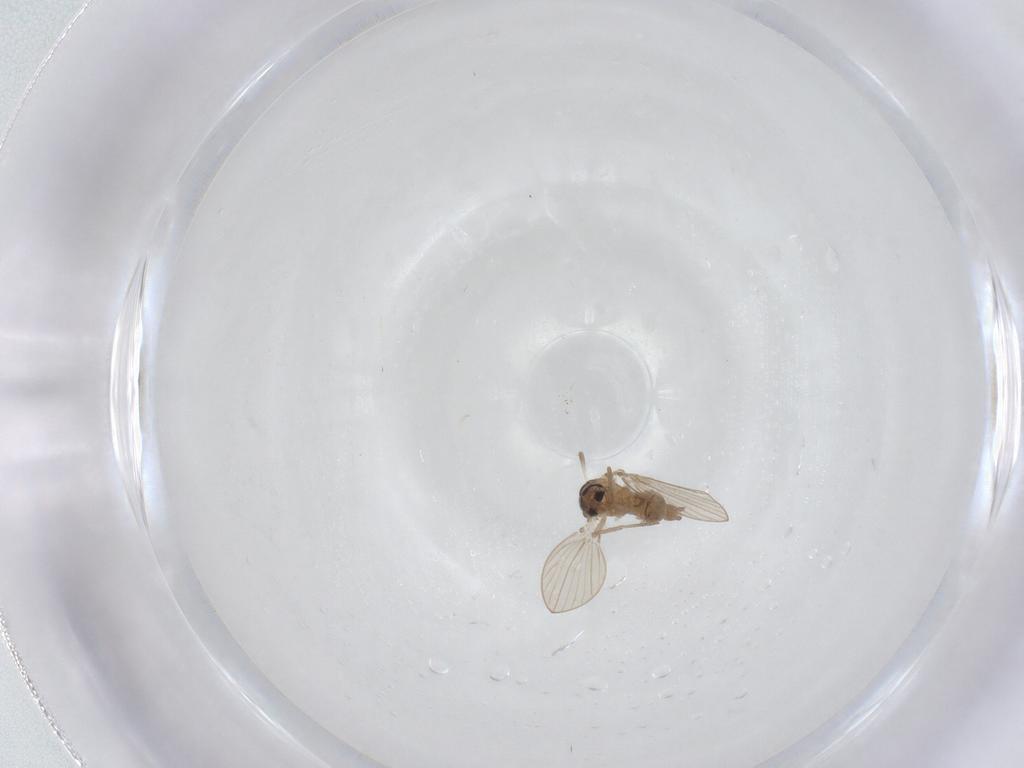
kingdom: Animalia
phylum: Arthropoda
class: Insecta
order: Diptera
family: Psychodidae
